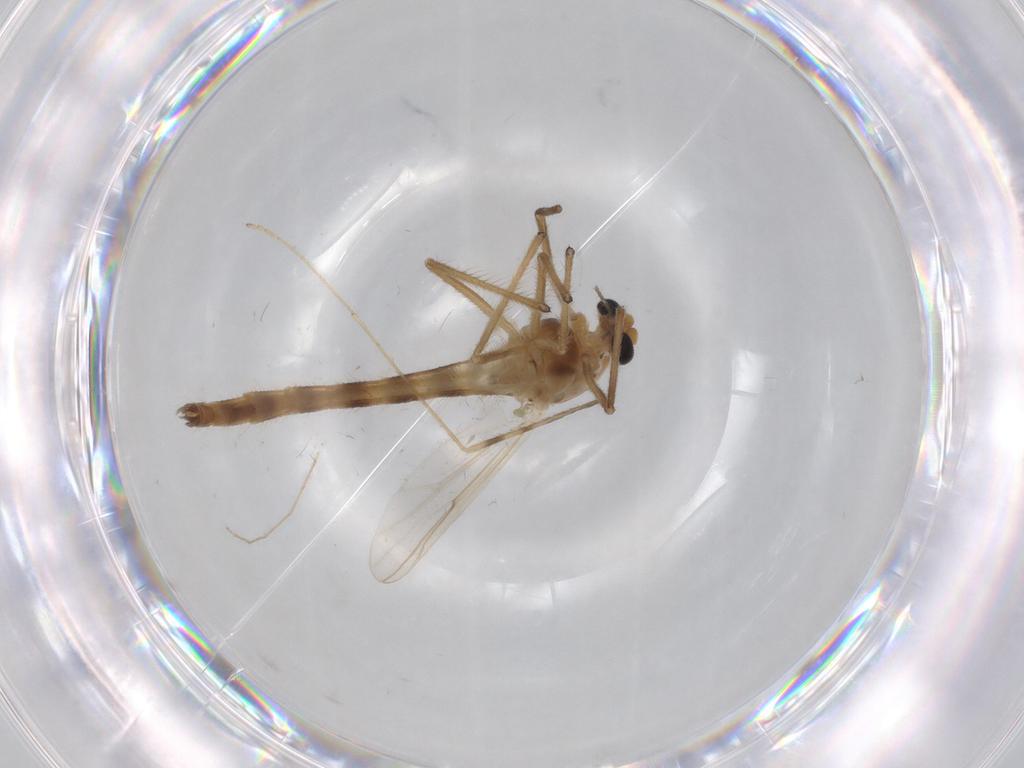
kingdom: Animalia
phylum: Arthropoda
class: Insecta
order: Diptera
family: Chironomidae
